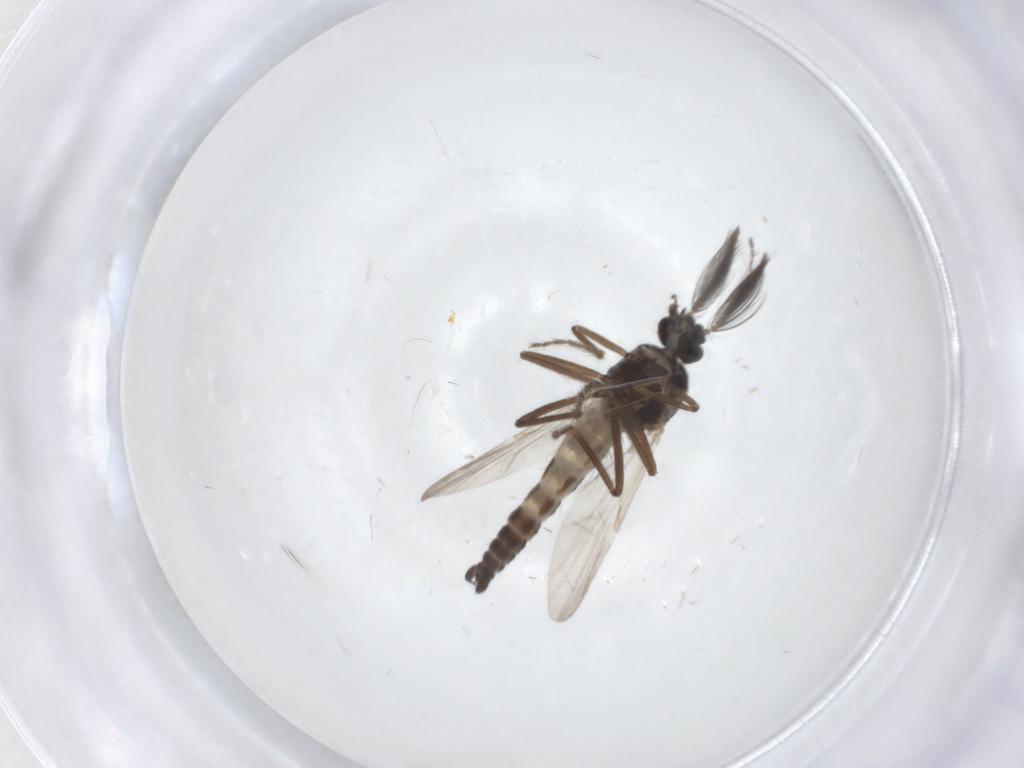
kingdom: Animalia
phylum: Arthropoda
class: Insecta
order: Diptera
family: Ceratopogonidae
